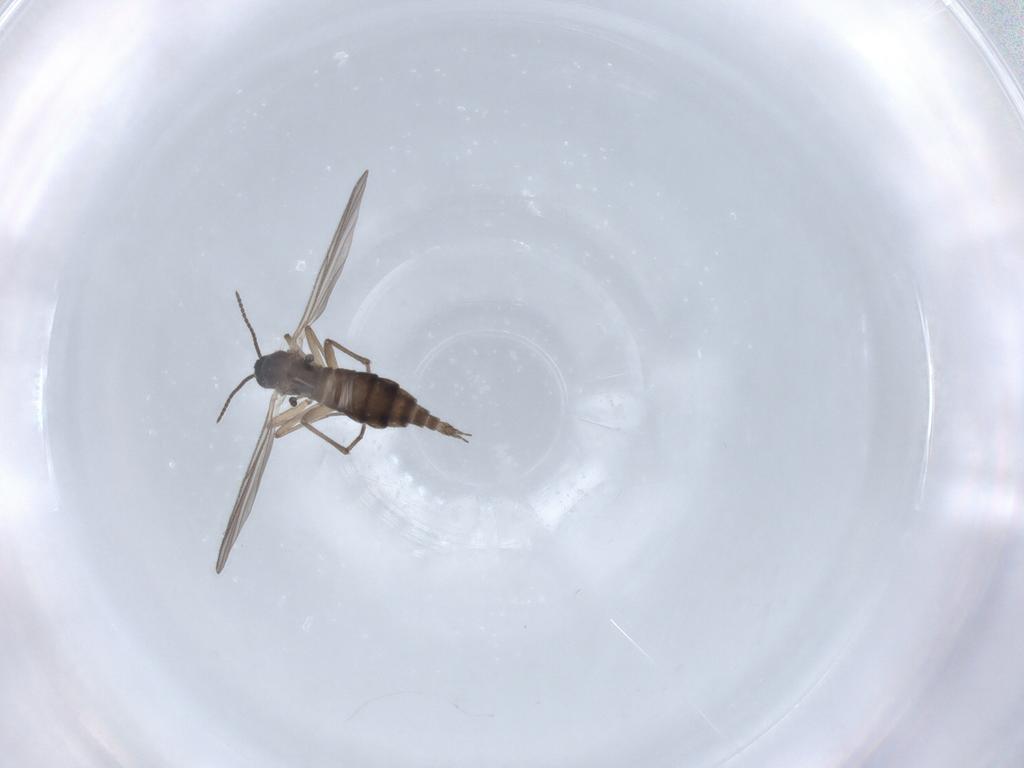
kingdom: Animalia
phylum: Arthropoda
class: Insecta
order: Diptera
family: Sciaridae
